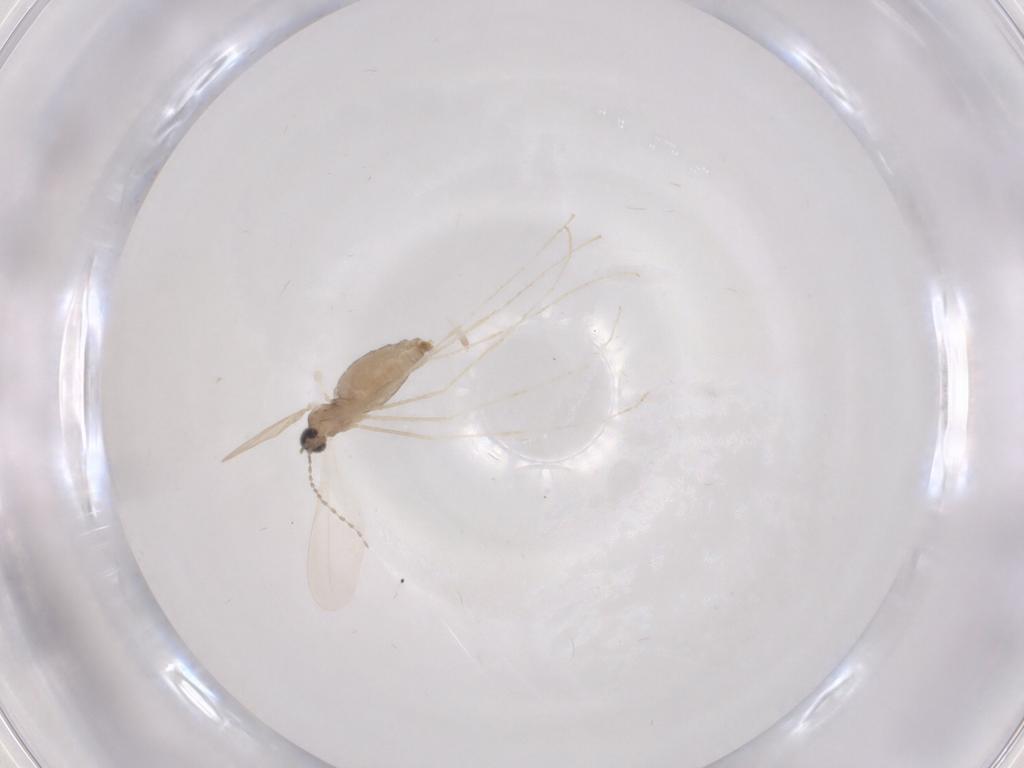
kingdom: Animalia
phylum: Arthropoda
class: Insecta
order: Diptera
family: Cecidomyiidae
